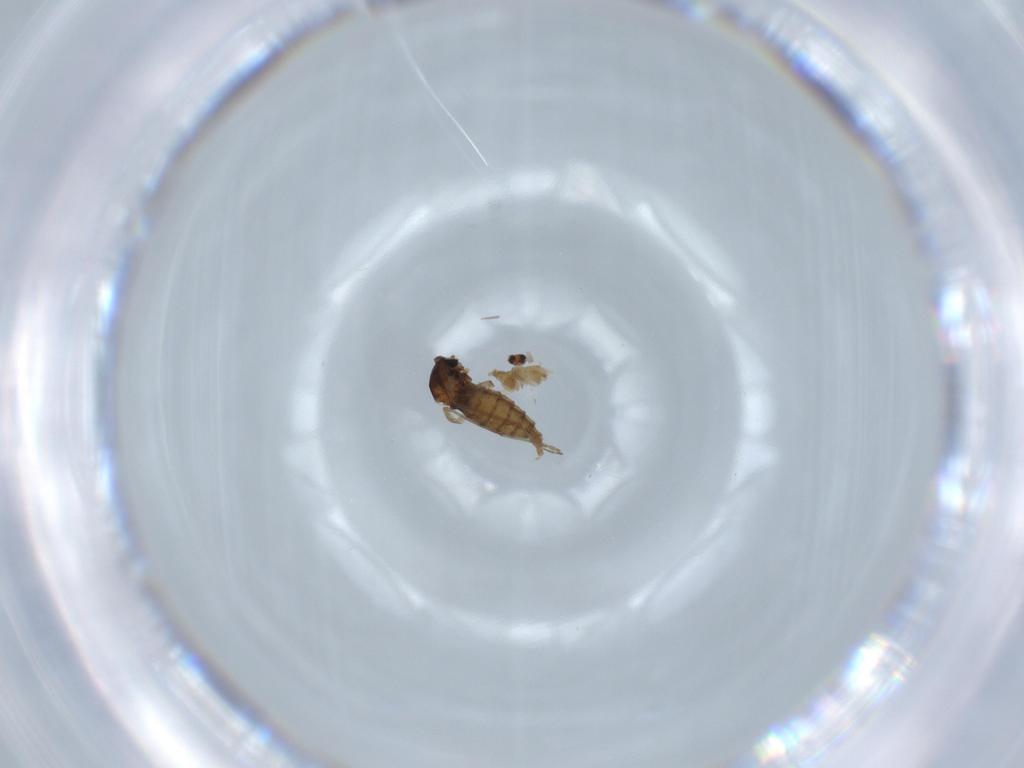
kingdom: Animalia
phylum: Arthropoda
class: Insecta
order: Diptera
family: Cecidomyiidae
